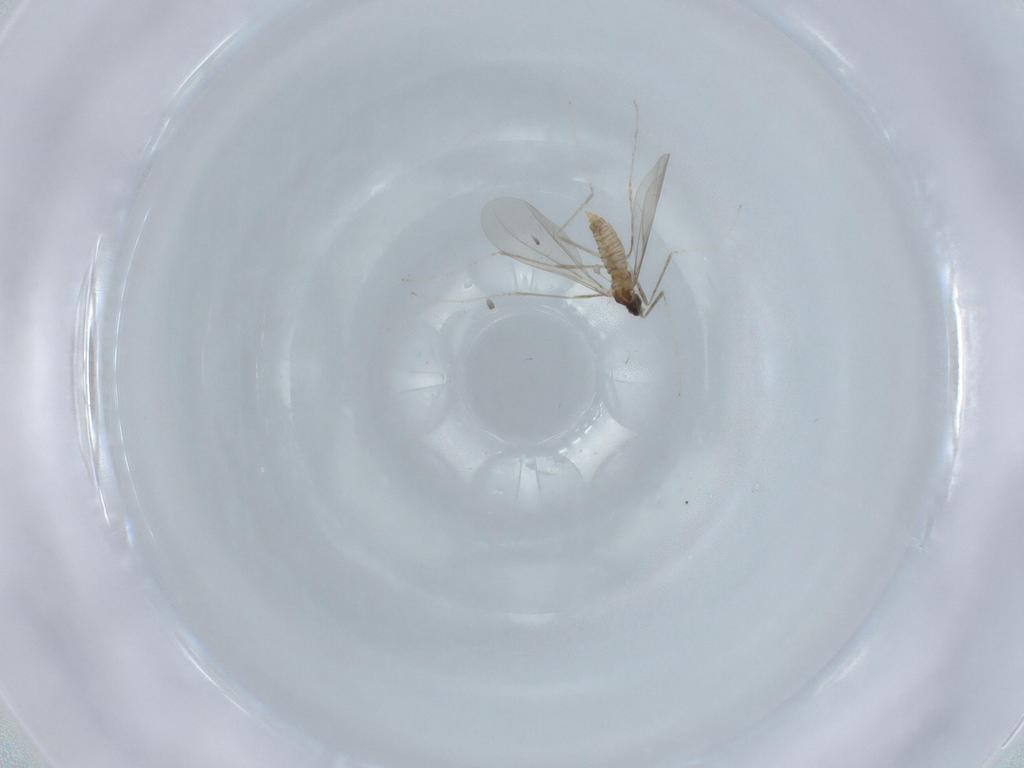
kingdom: Animalia
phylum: Arthropoda
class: Insecta
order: Diptera
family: Cecidomyiidae
